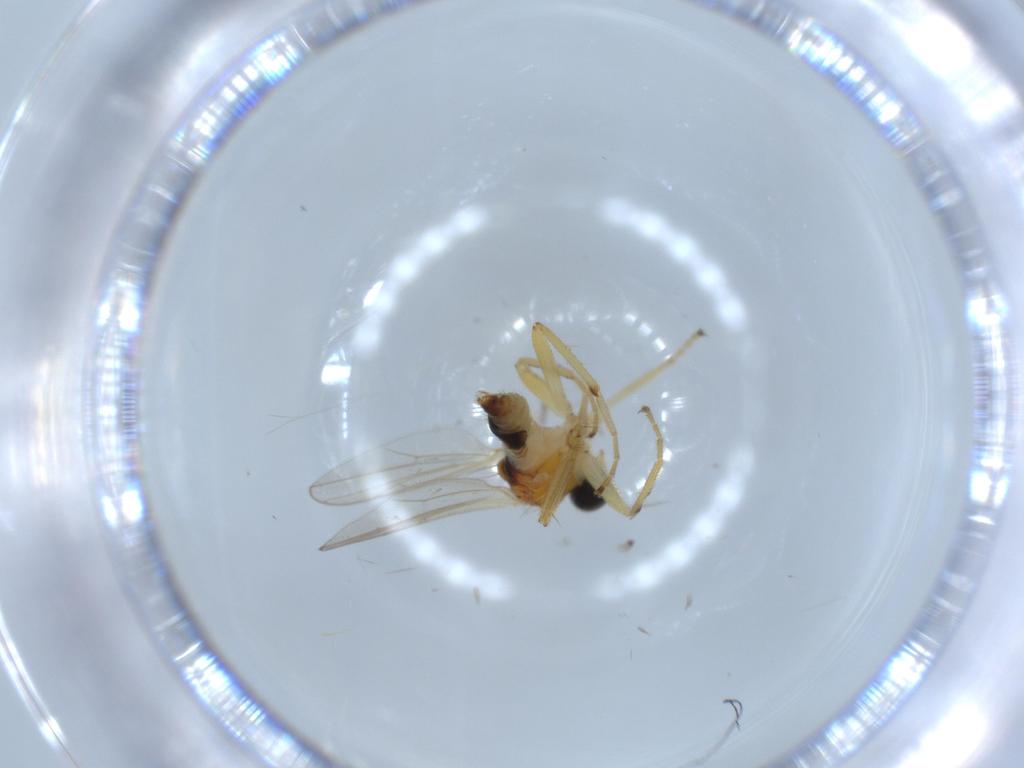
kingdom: Animalia
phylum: Arthropoda
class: Insecta
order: Diptera
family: Hybotidae
